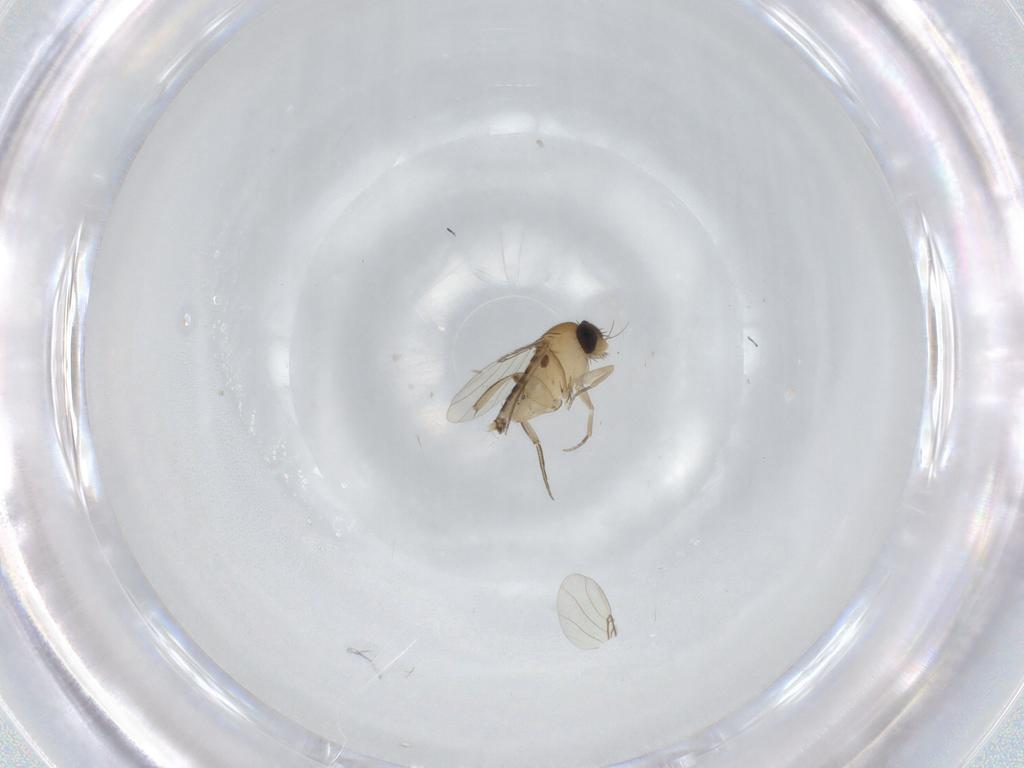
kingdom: Animalia
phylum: Arthropoda
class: Insecta
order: Diptera
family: Phoridae
